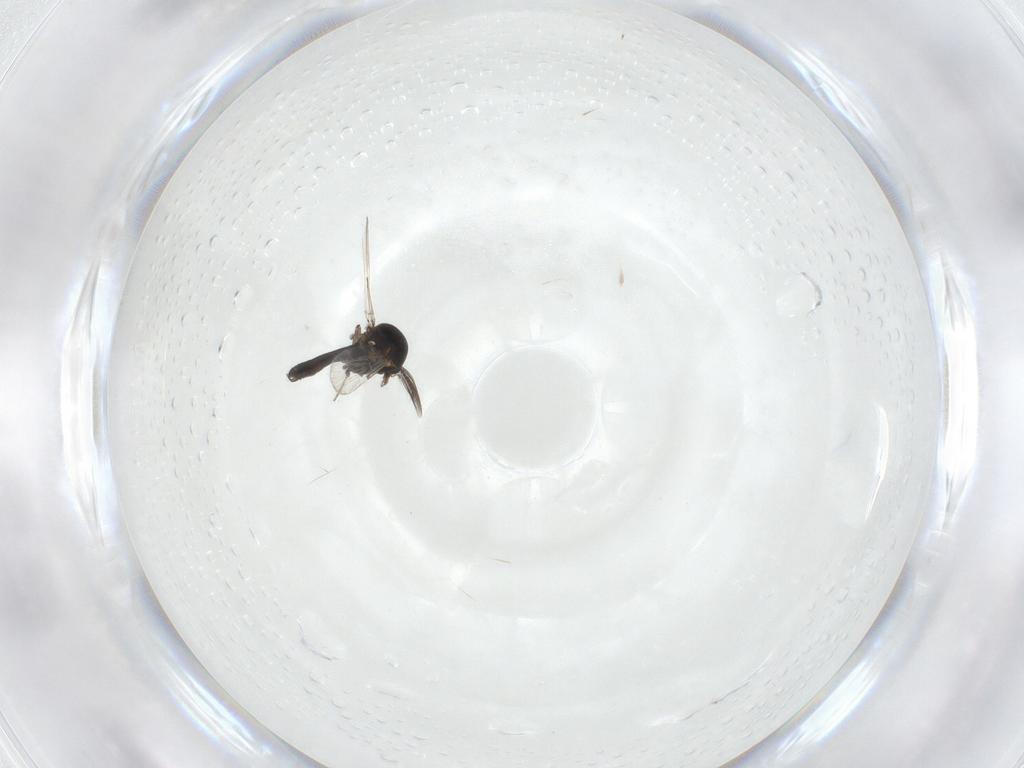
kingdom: Animalia
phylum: Arthropoda
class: Insecta
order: Diptera
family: Ceratopogonidae
